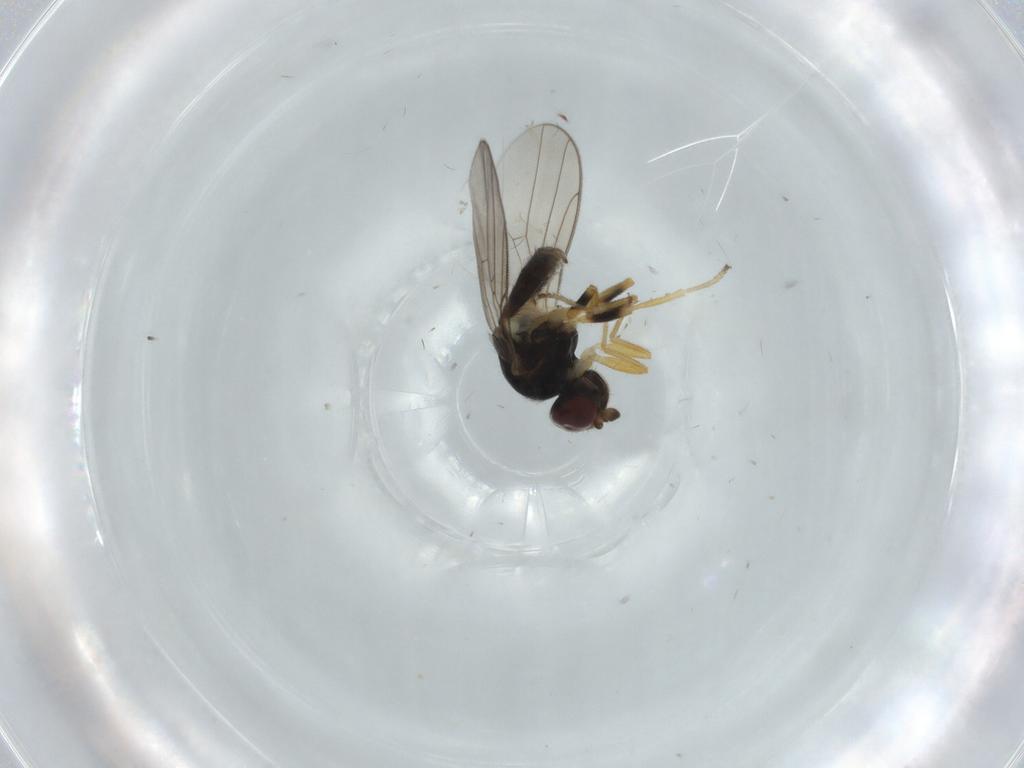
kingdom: Animalia
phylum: Arthropoda
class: Insecta
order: Diptera
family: Chloropidae
